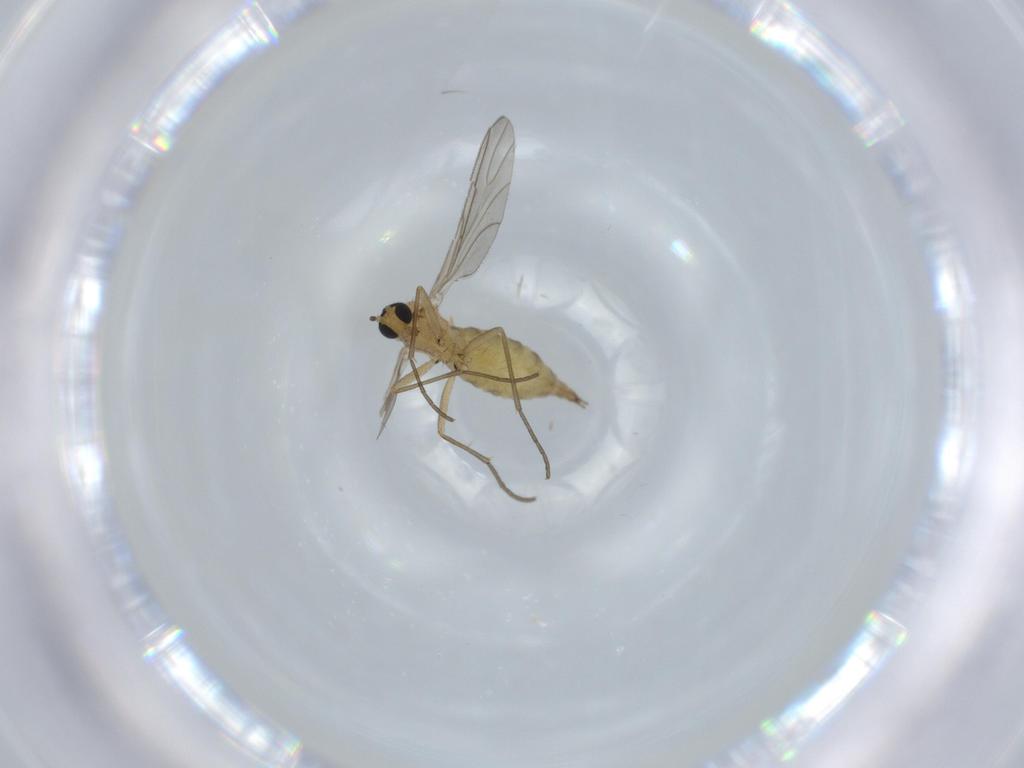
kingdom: Animalia
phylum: Arthropoda
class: Insecta
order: Diptera
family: Sciaridae
